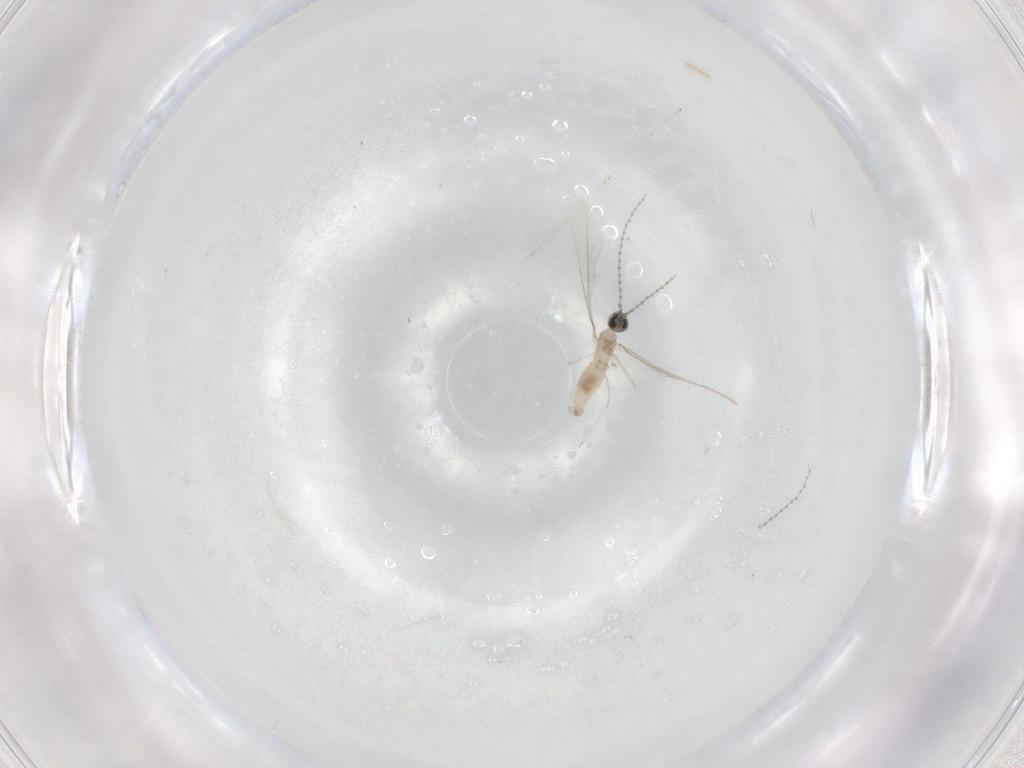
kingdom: Animalia
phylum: Arthropoda
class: Insecta
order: Diptera
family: Cecidomyiidae
